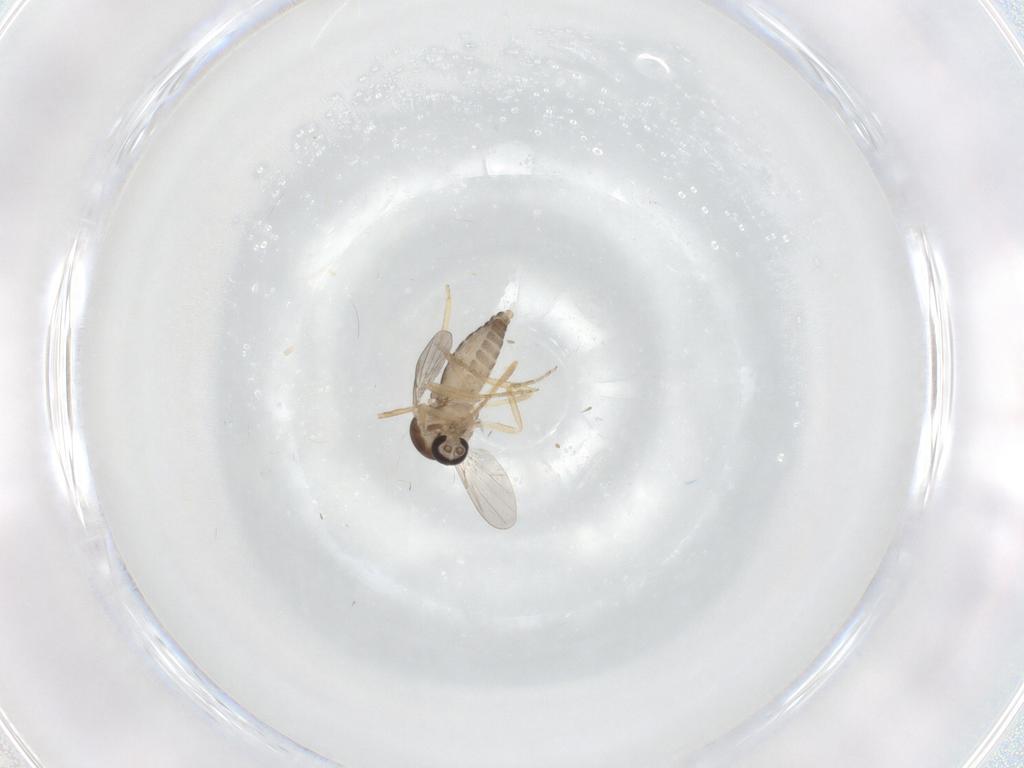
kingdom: Animalia
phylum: Arthropoda
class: Insecta
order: Diptera
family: Ceratopogonidae
